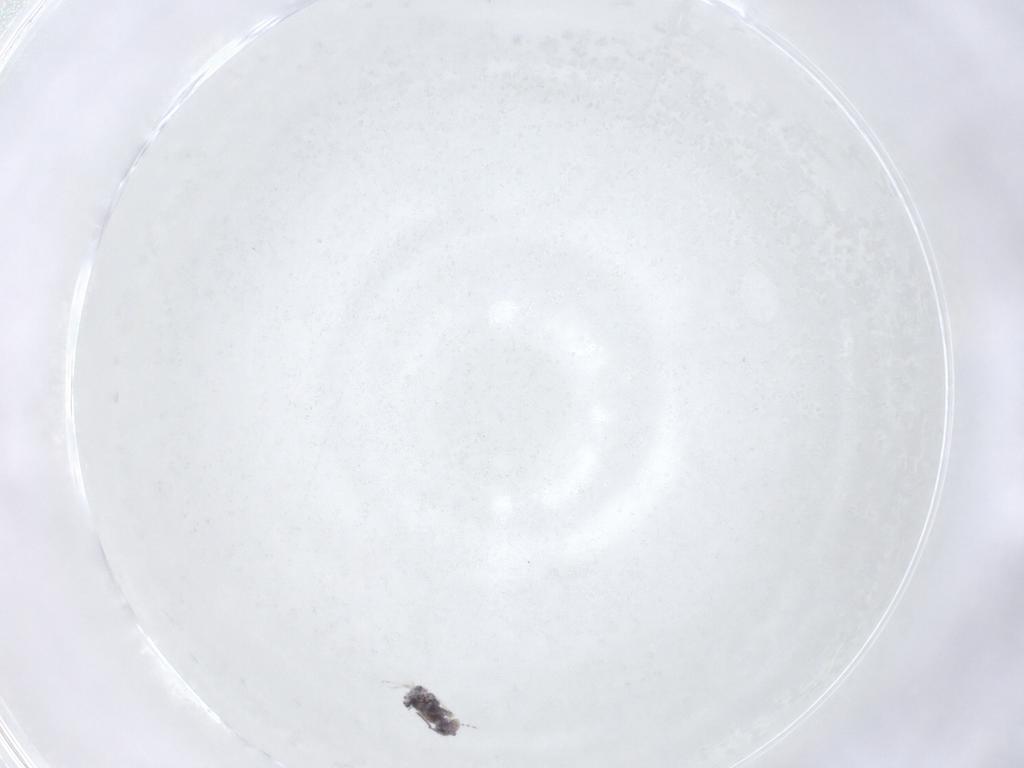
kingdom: Animalia
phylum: Arthropoda
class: Collembola
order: Symphypleona
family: Bourletiellidae
